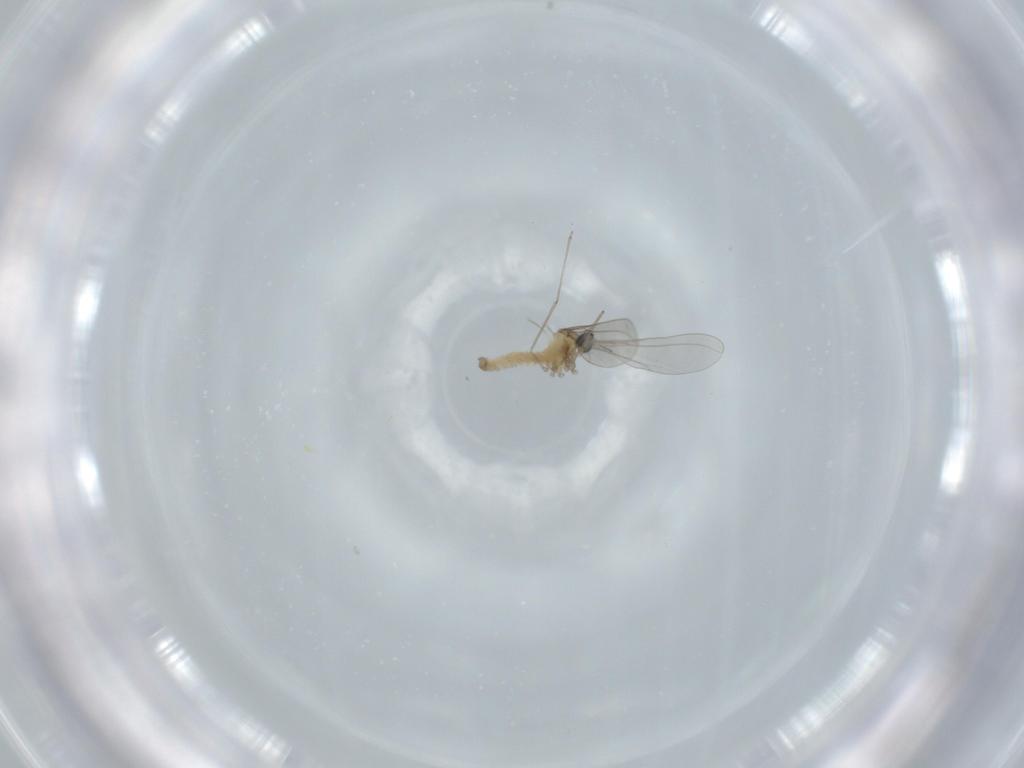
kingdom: Animalia
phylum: Arthropoda
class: Insecta
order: Diptera
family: Cecidomyiidae
